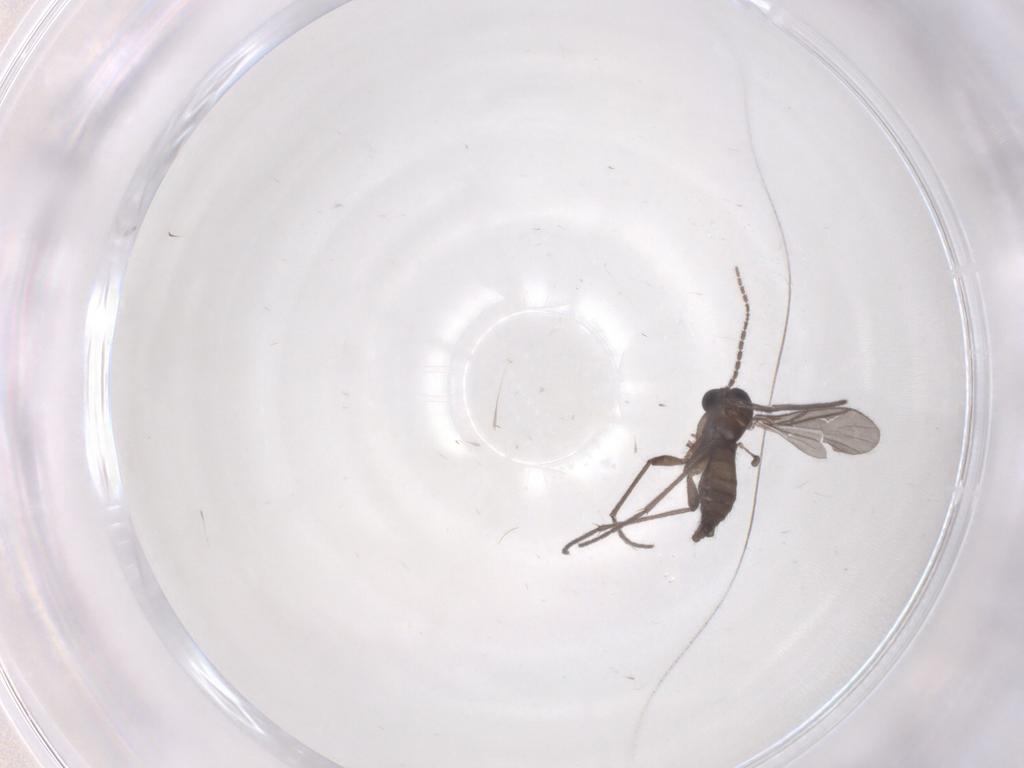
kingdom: Animalia
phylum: Arthropoda
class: Insecta
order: Diptera
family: Sciaridae
